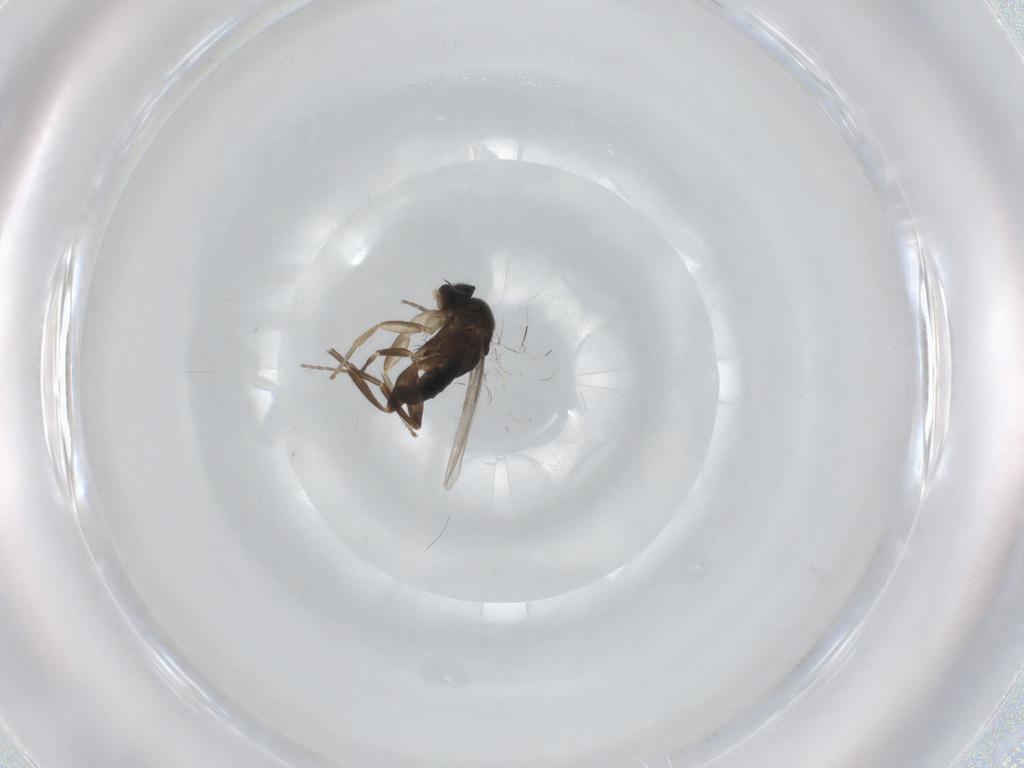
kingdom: Animalia
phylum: Arthropoda
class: Insecta
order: Diptera
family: Phoridae
